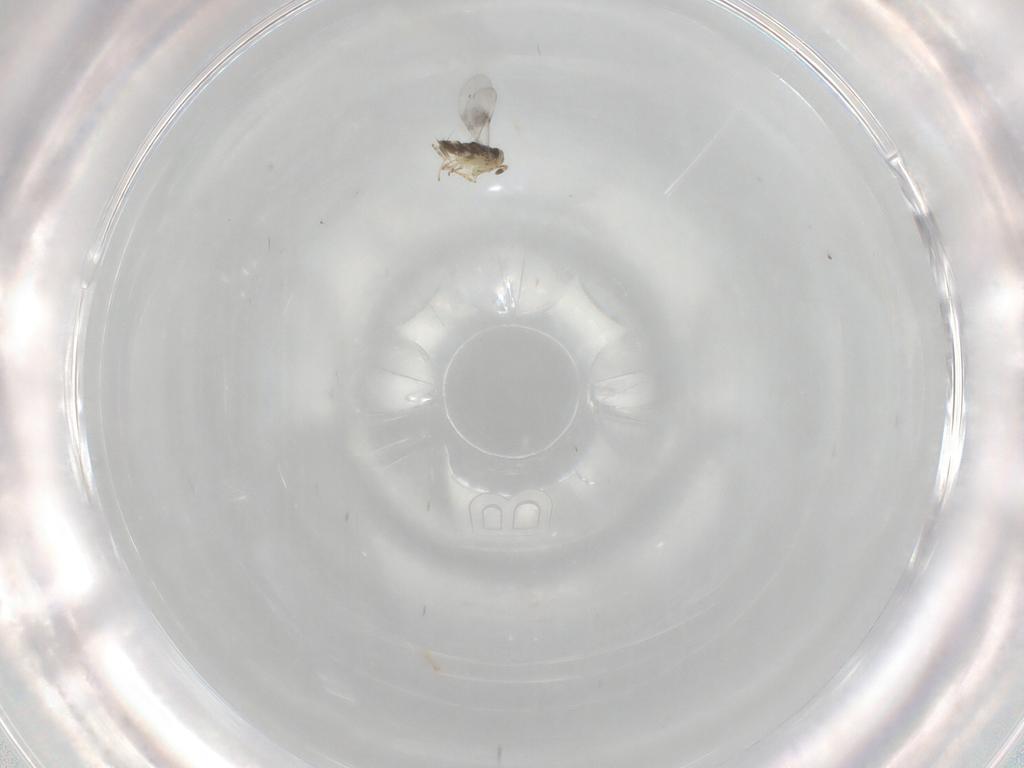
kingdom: Animalia
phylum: Arthropoda
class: Insecta
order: Hymenoptera
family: Encyrtidae
